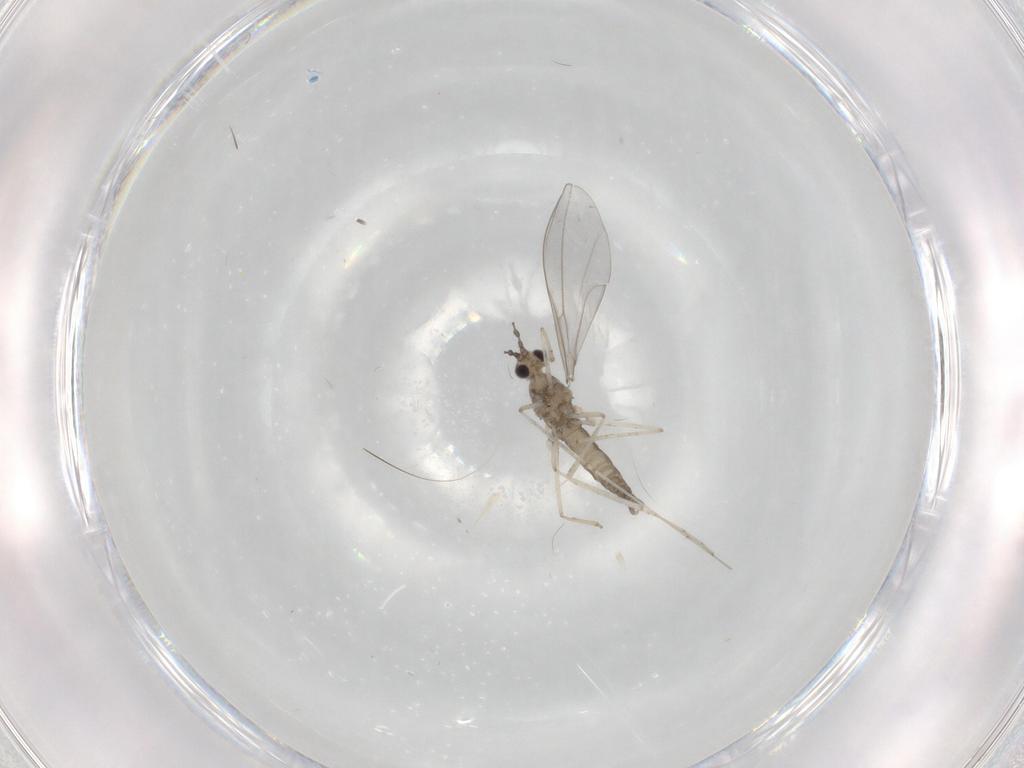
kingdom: Animalia
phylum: Arthropoda
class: Insecta
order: Diptera
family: Cecidomyiidae
